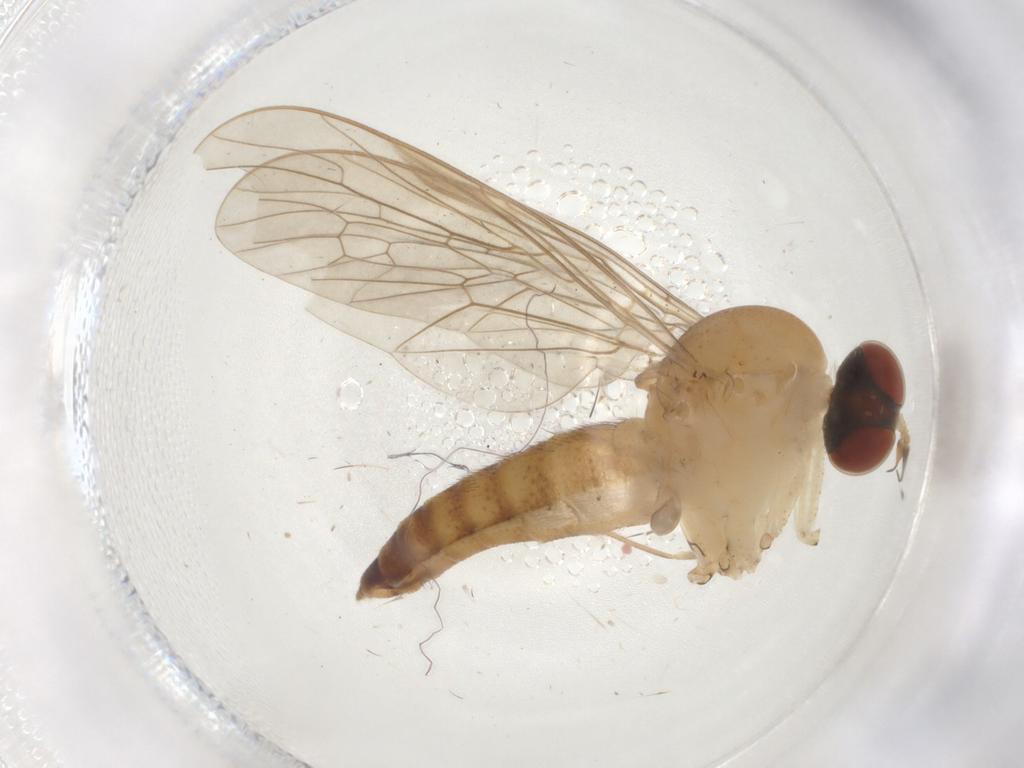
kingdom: Animalia
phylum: Arthropoda
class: Insecta
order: Diptera
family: Apsilocephalidae
